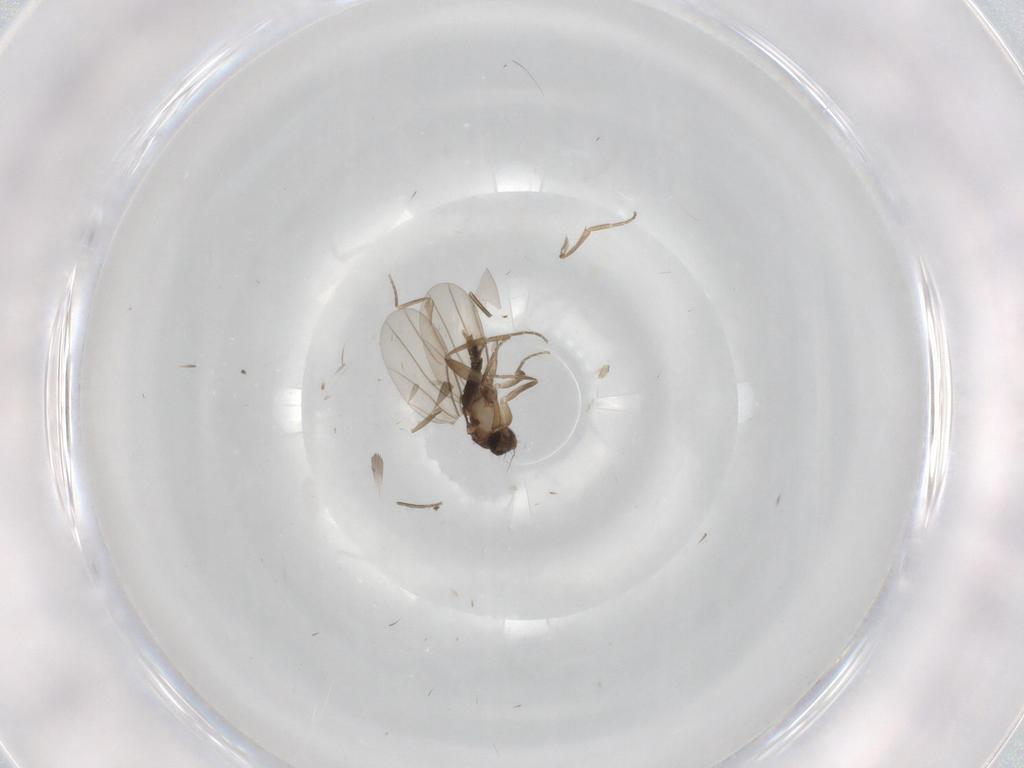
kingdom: Animalia
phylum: Arthropoda
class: Insecta
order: Diptera
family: Phoridae
